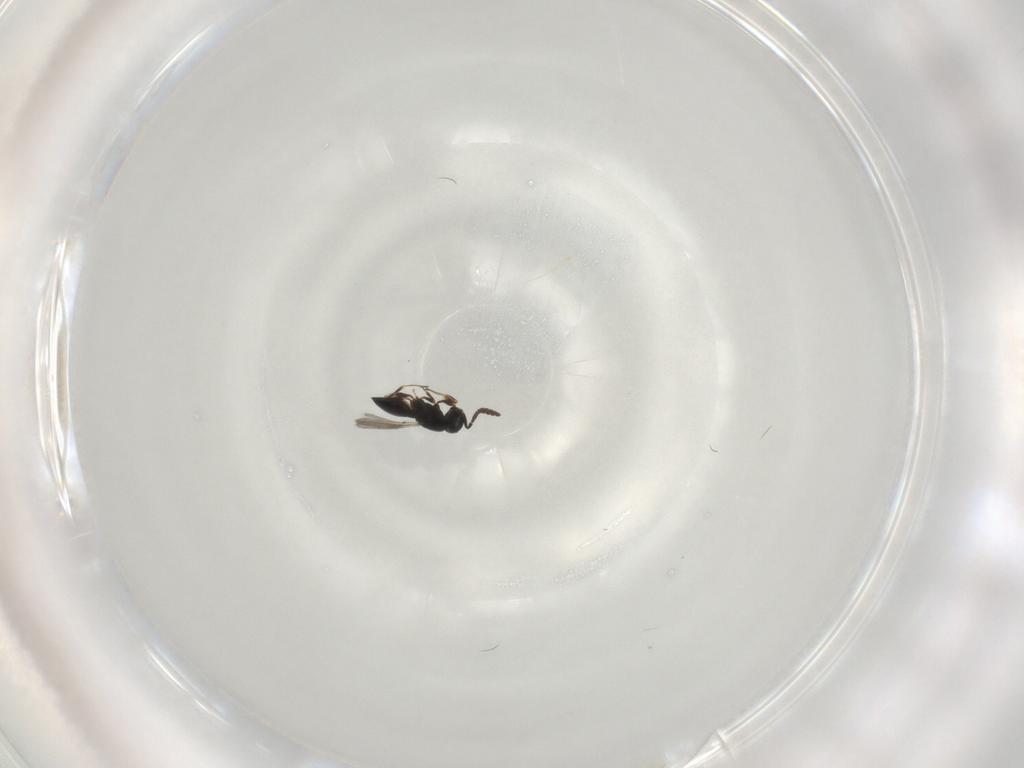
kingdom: Animalia
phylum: Arthropoda
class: Insecta
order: Hymenoptera
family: Scelionidae
